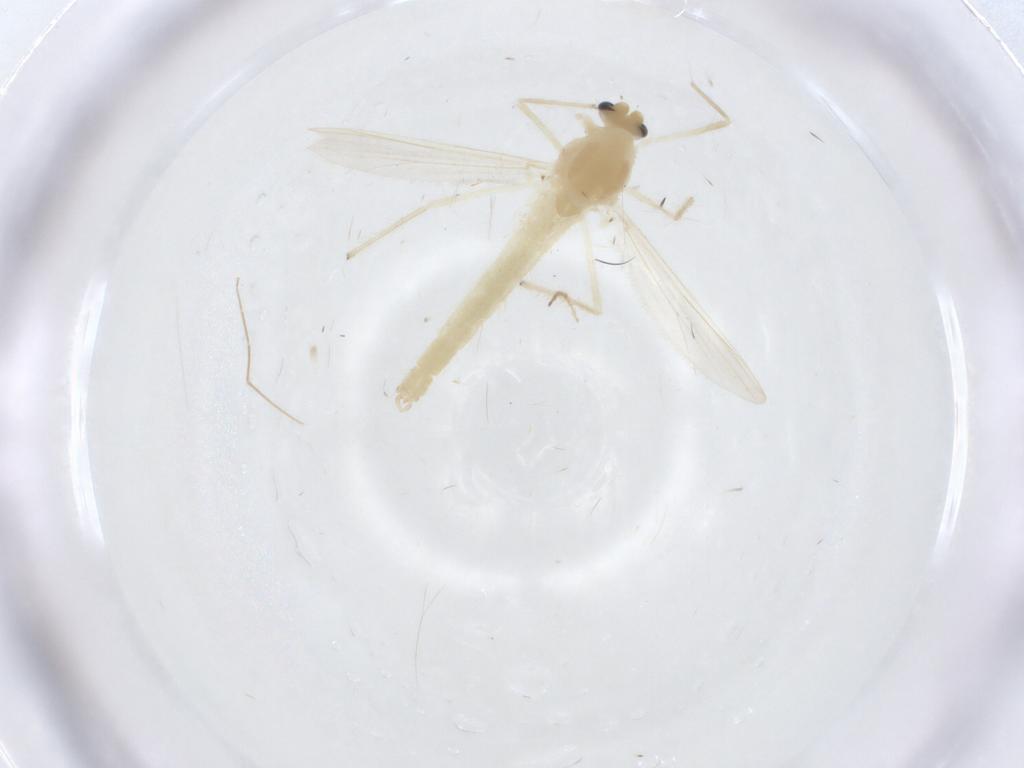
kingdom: Animalia
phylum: Arthropoda
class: Insecta
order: Diptera
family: Chironomidae
